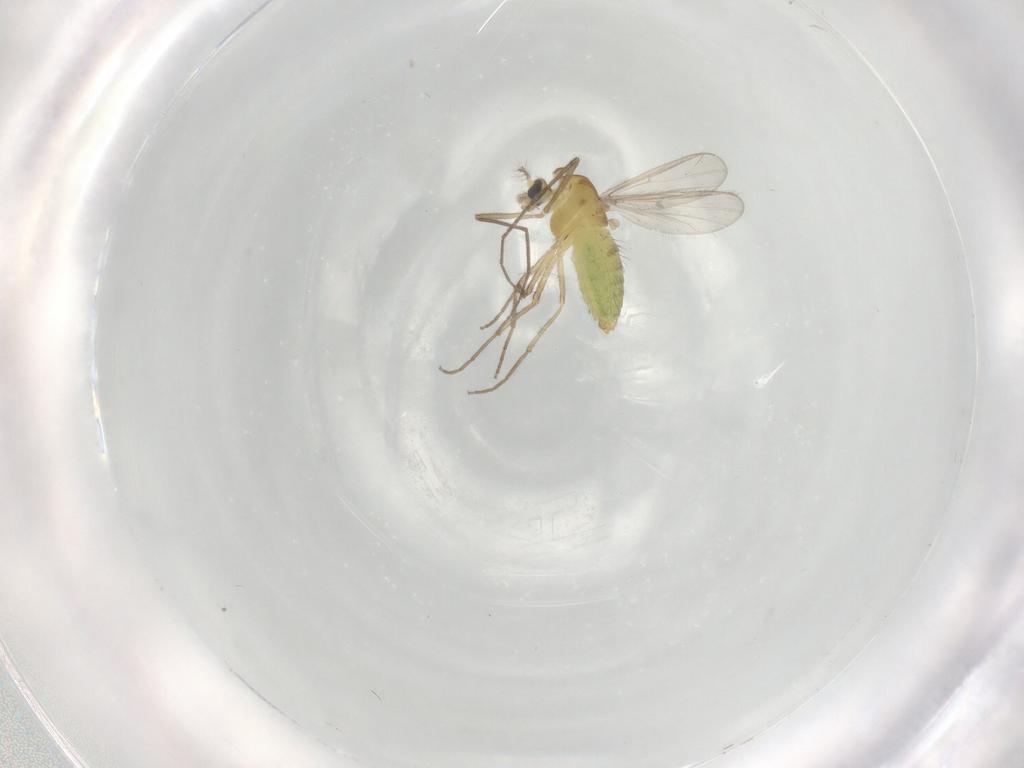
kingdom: Animalia
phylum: Arthropoda
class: Insecta
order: Diptera
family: Chironomidae
